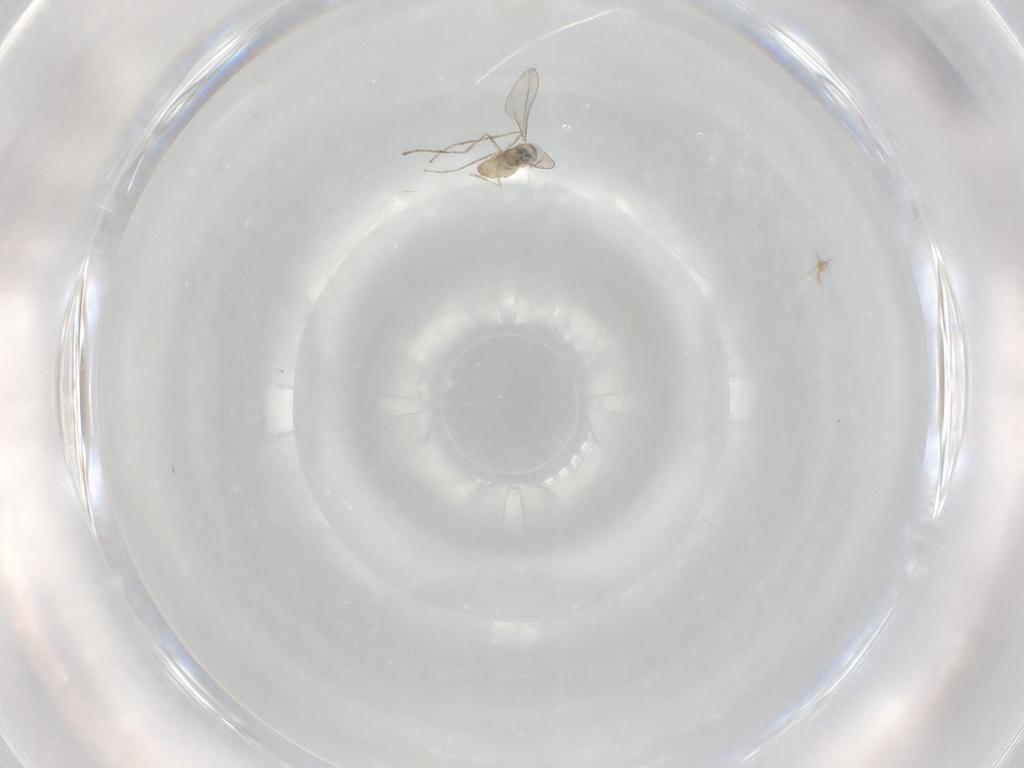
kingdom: Animalia
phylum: Arthropoda
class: Insecta
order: Diptera
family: Cecidomyiidae
